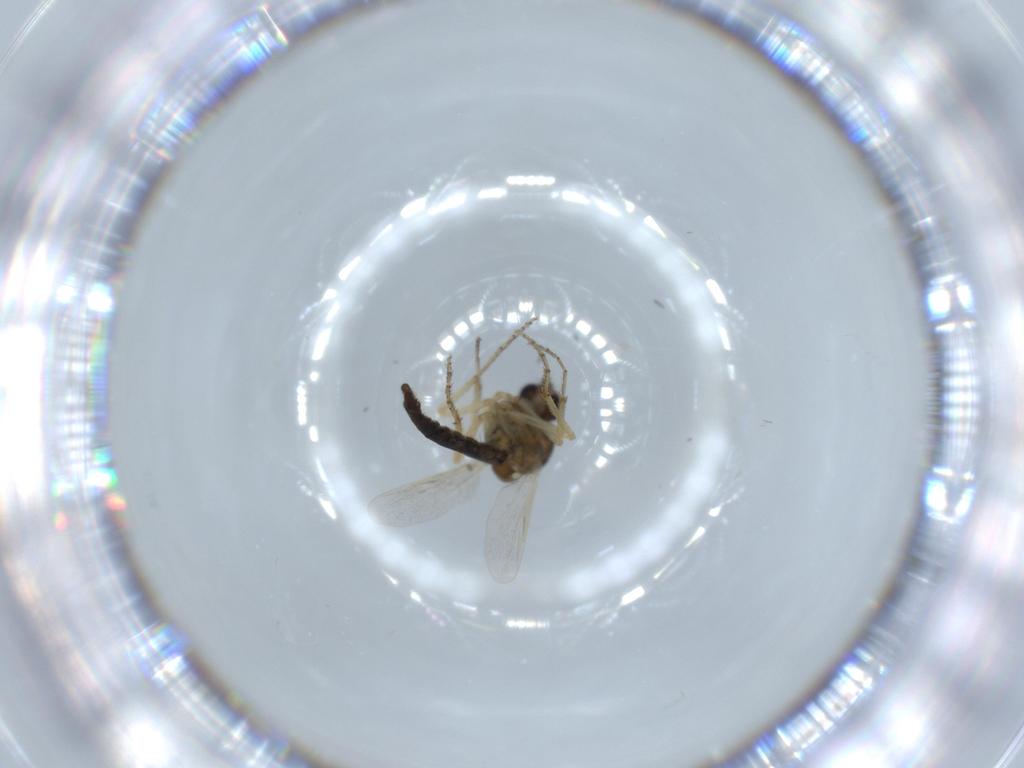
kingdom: Animalia
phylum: Arthropoda
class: Insecta
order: Diptera
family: Ceratopogonidae
